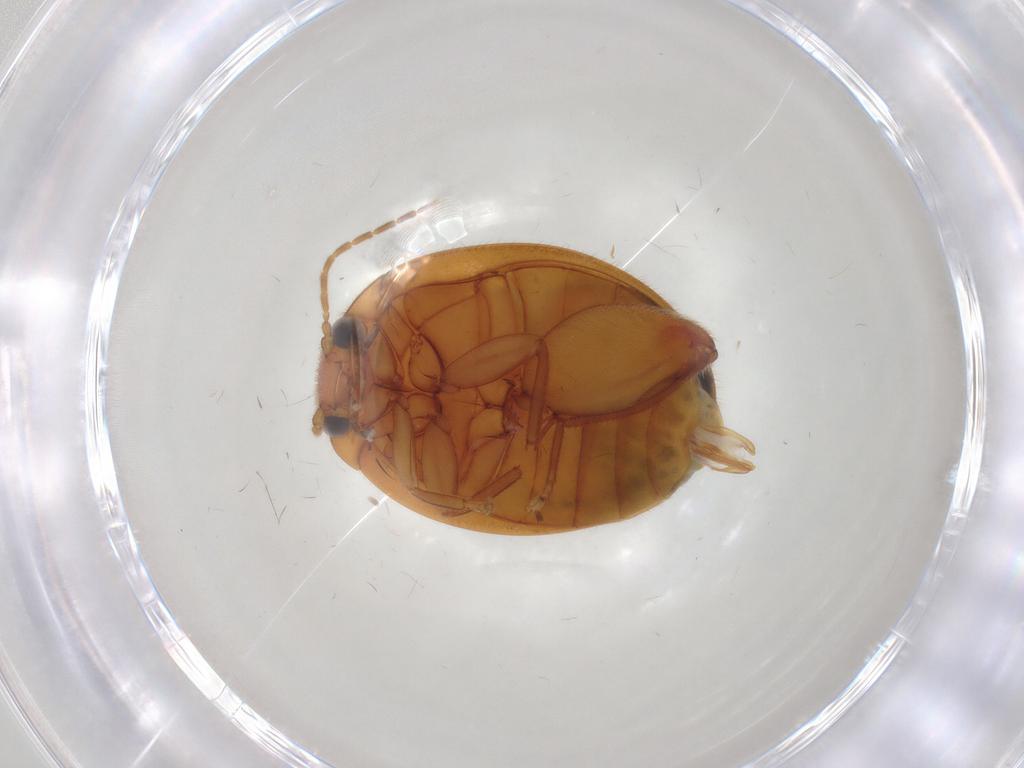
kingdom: Animalia
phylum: Arthropoda
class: Insecta
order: Coleoptera
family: Scirtidae
